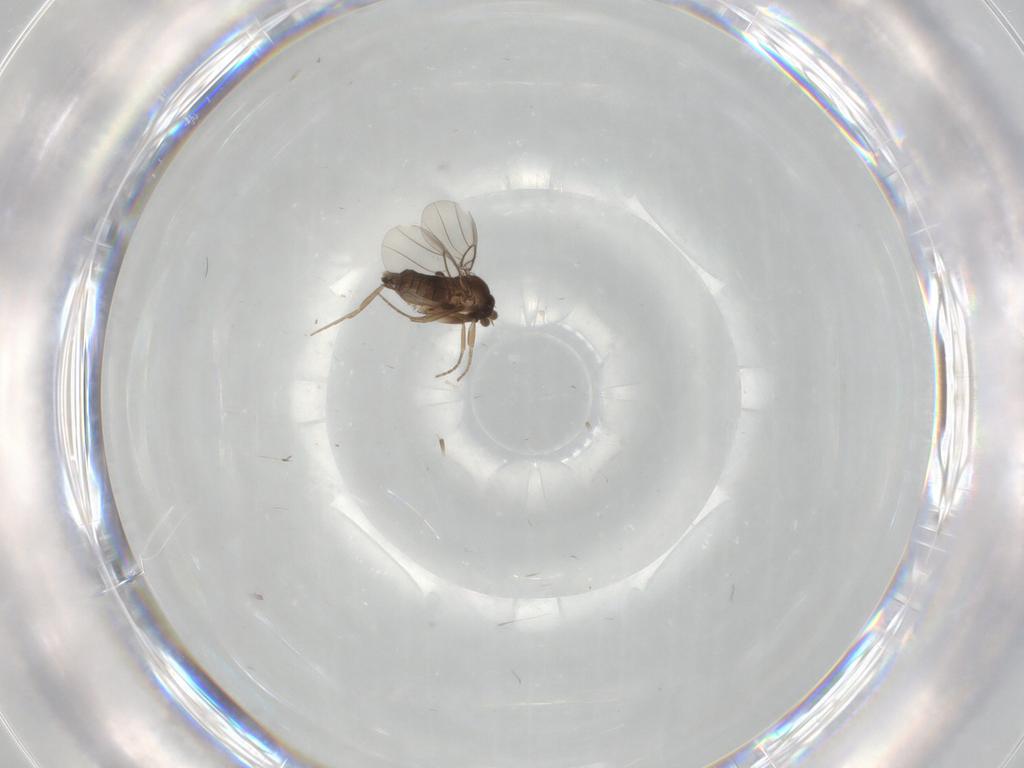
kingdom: Animalia
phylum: Arthropoda
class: Insecta
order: Diptera
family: Phoridae
